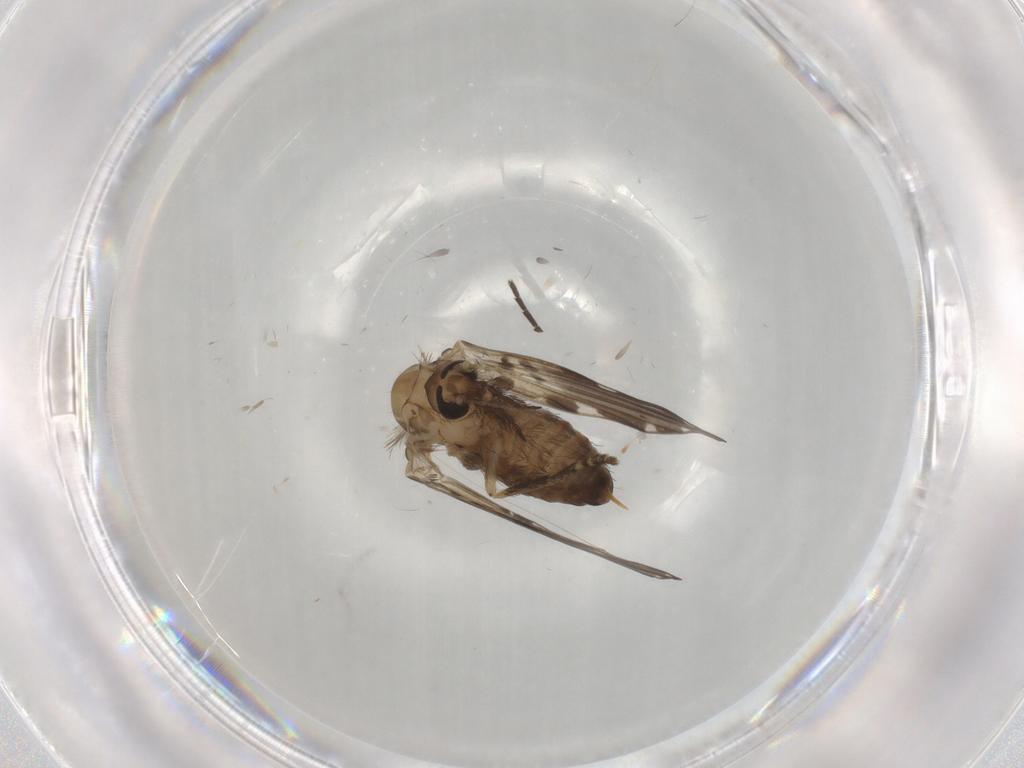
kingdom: Animalia
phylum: Arthropoda
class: Insecta
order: Diptera
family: Psychodidae
